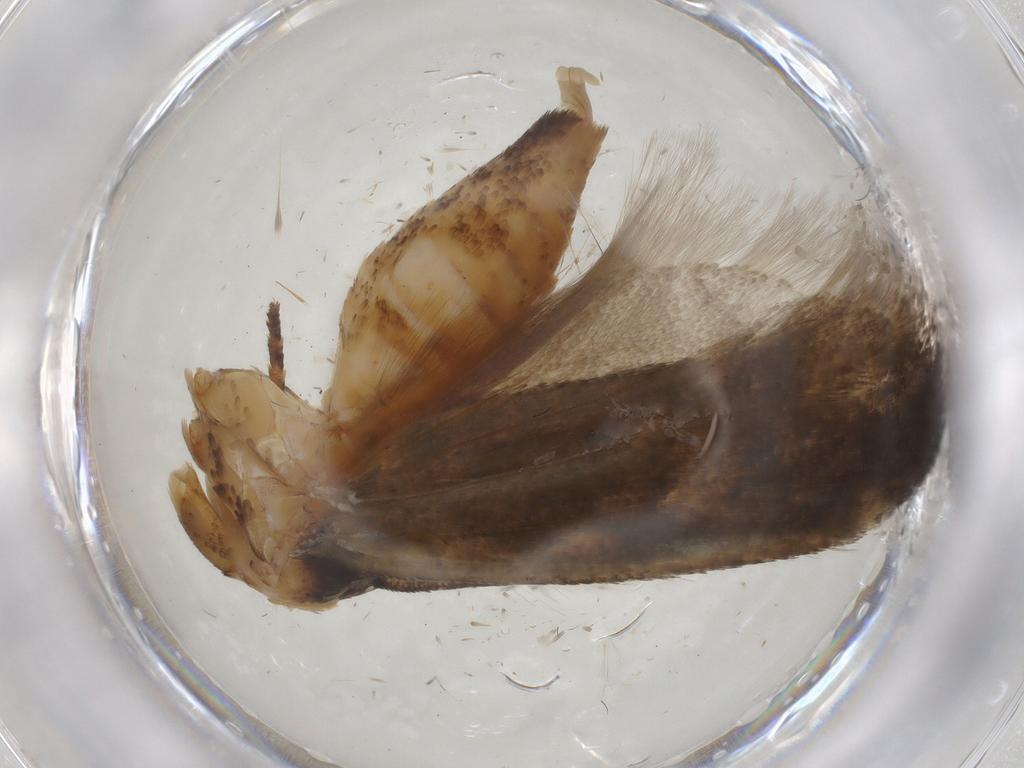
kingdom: Animalia
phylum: Arthropoda
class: Insecta
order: Lepidoptera
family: Gelechiidae
